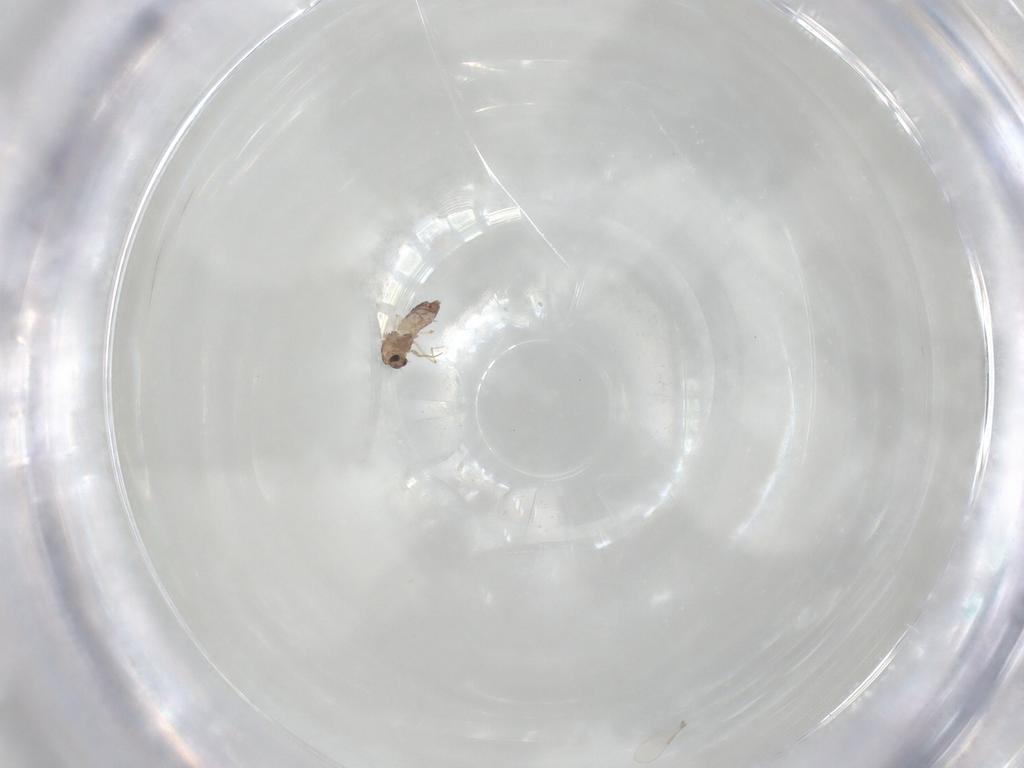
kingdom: Animalia
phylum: Arthropoda
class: Insecta
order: Diptera
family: Chironomidae
